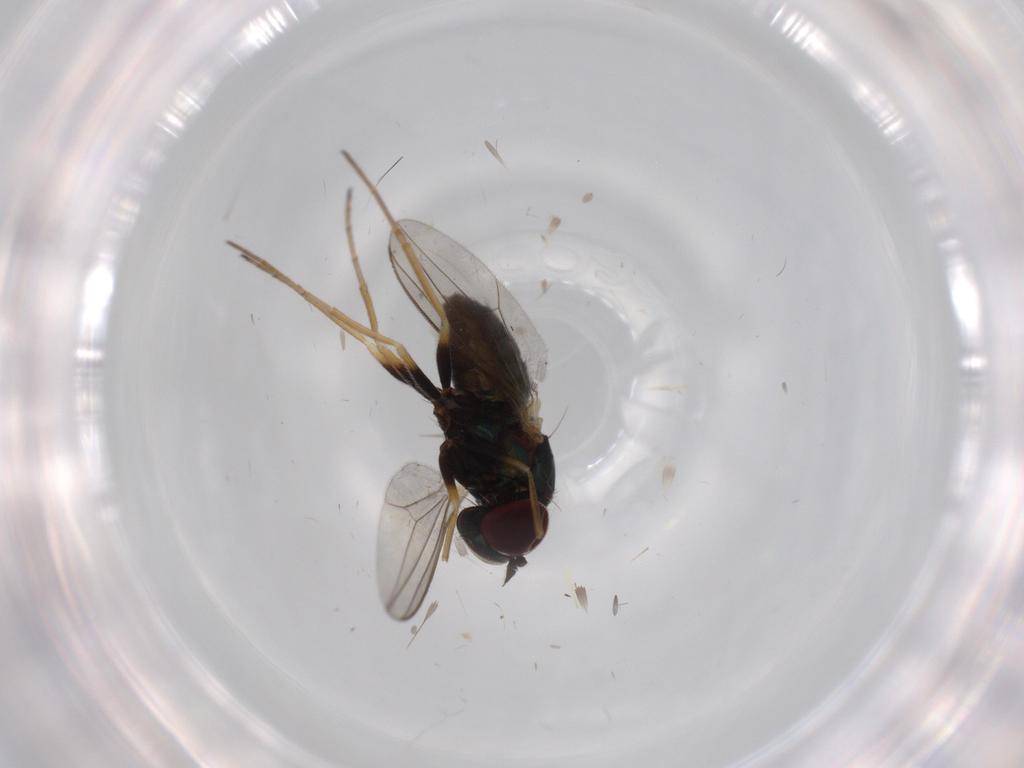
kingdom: Animalia
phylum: Arthropoda
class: Insecta
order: Diptera
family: Dolichopodidae
